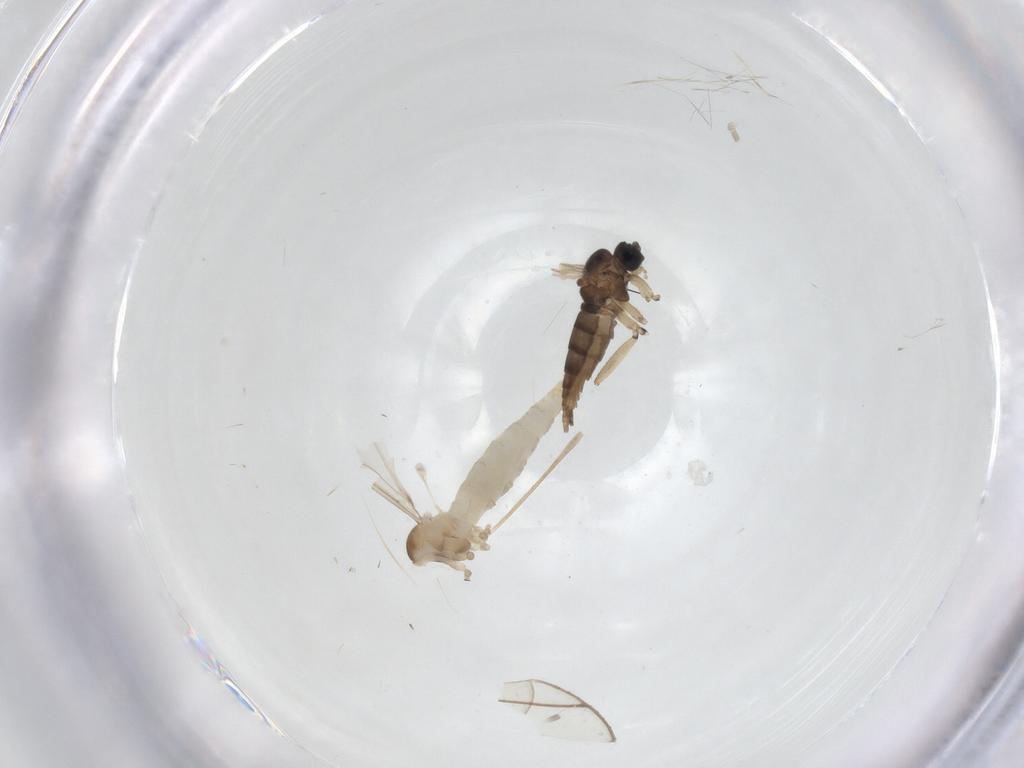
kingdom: Animalia
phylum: Arthropoda
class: Insecta
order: Diptera
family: Cecidomyiidae
